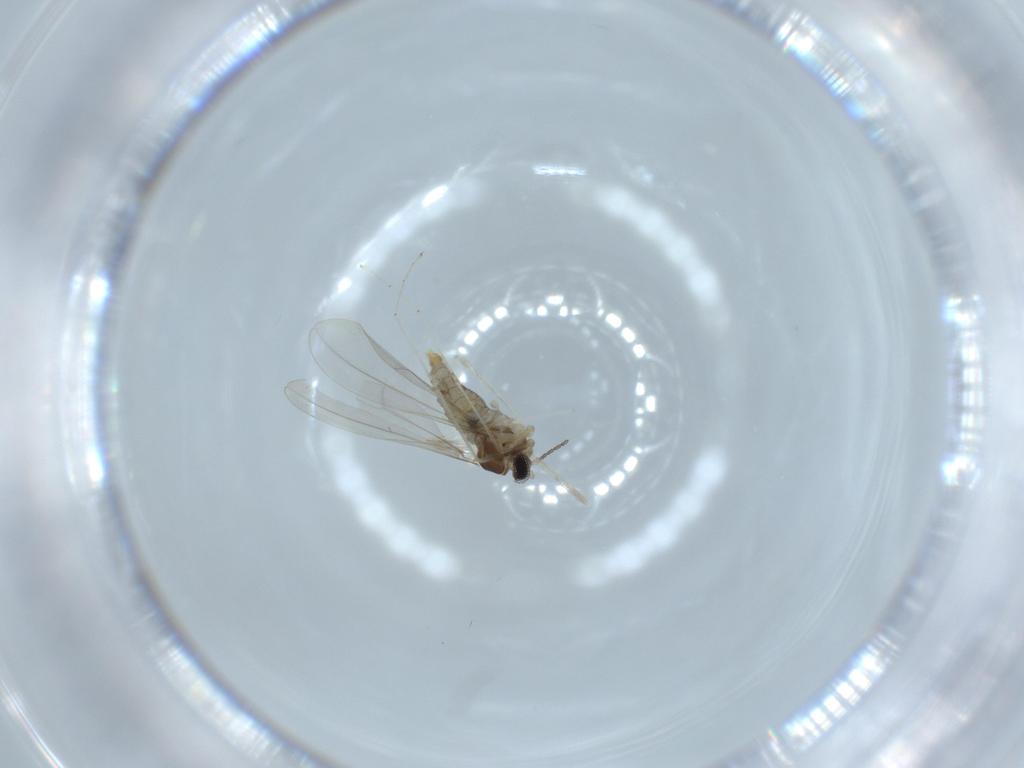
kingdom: Animalia
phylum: Arthropoda
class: Insecta
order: Diptera
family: Cecidomyiidae
